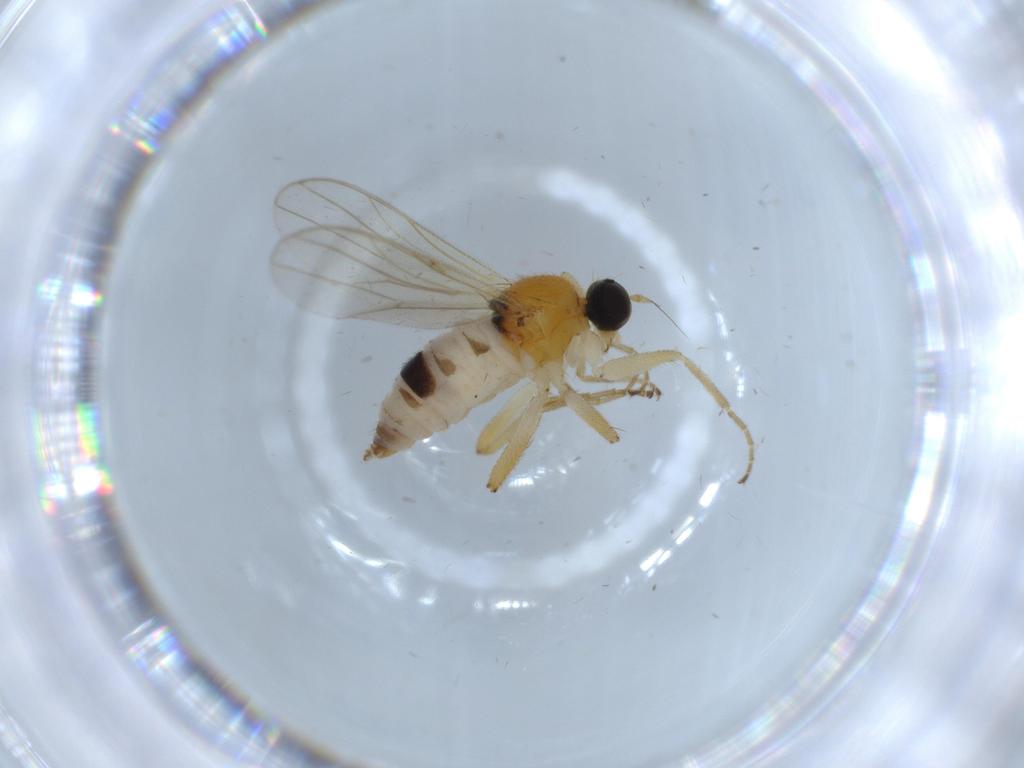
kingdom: Animalia
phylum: Arthropoda
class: Insecta
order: Diptera
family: Hybotidae
